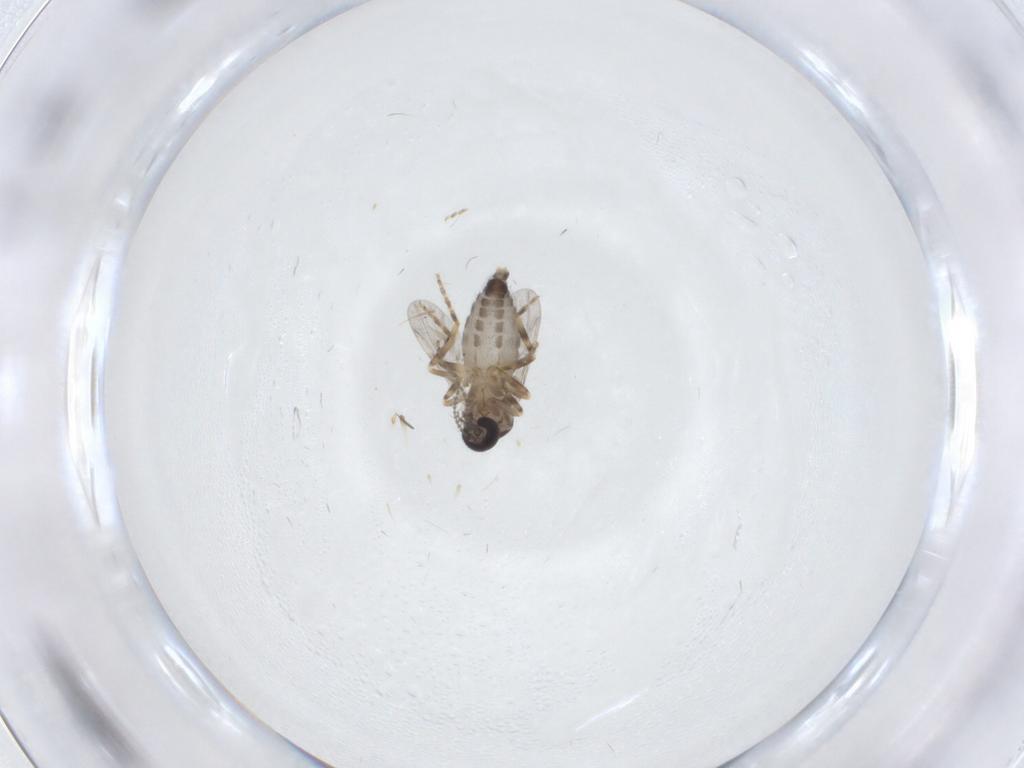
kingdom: Animalia
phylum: Arthropoda
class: Insecta
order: Diptera
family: Ceratopogonidae
